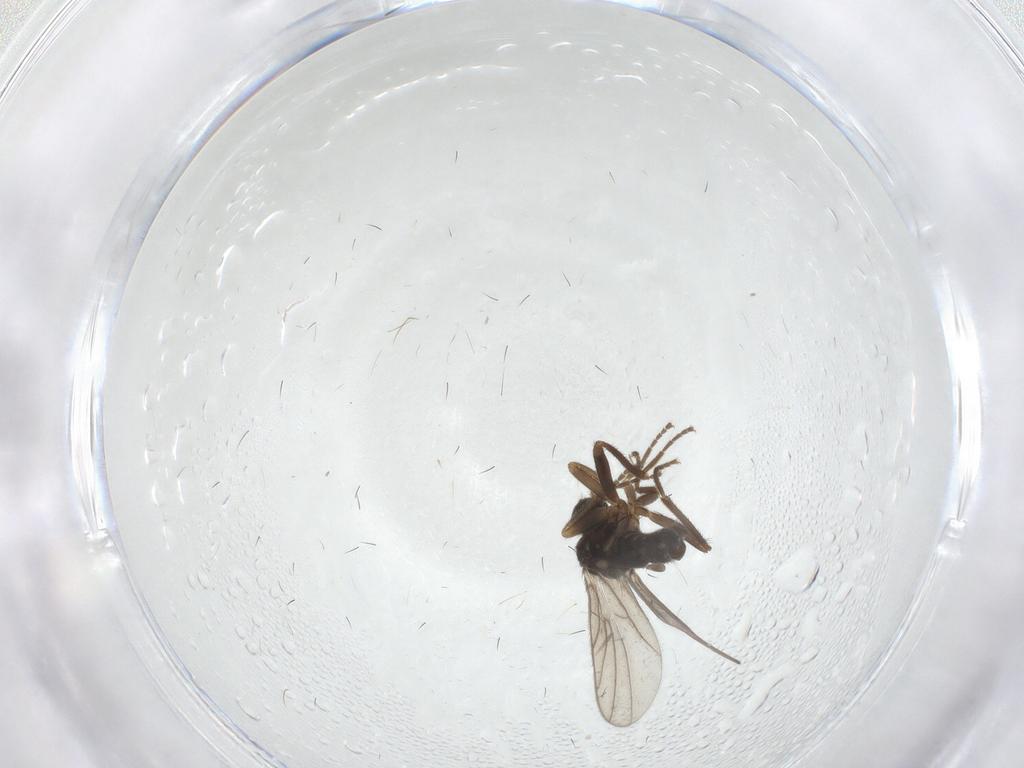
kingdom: Animalia
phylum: Arthropoda
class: Insecta
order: Diptera
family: Hybotidae
